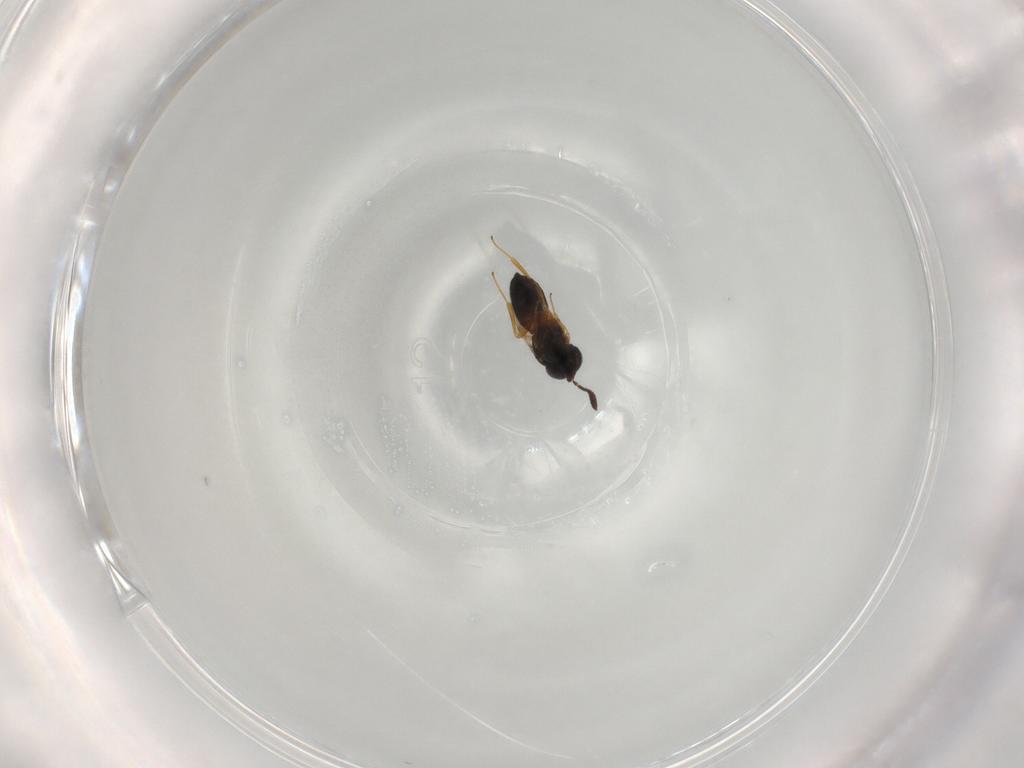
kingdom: Animalia
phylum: Arthropoda
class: Insecta
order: Hymenoptera
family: Scelionidae
